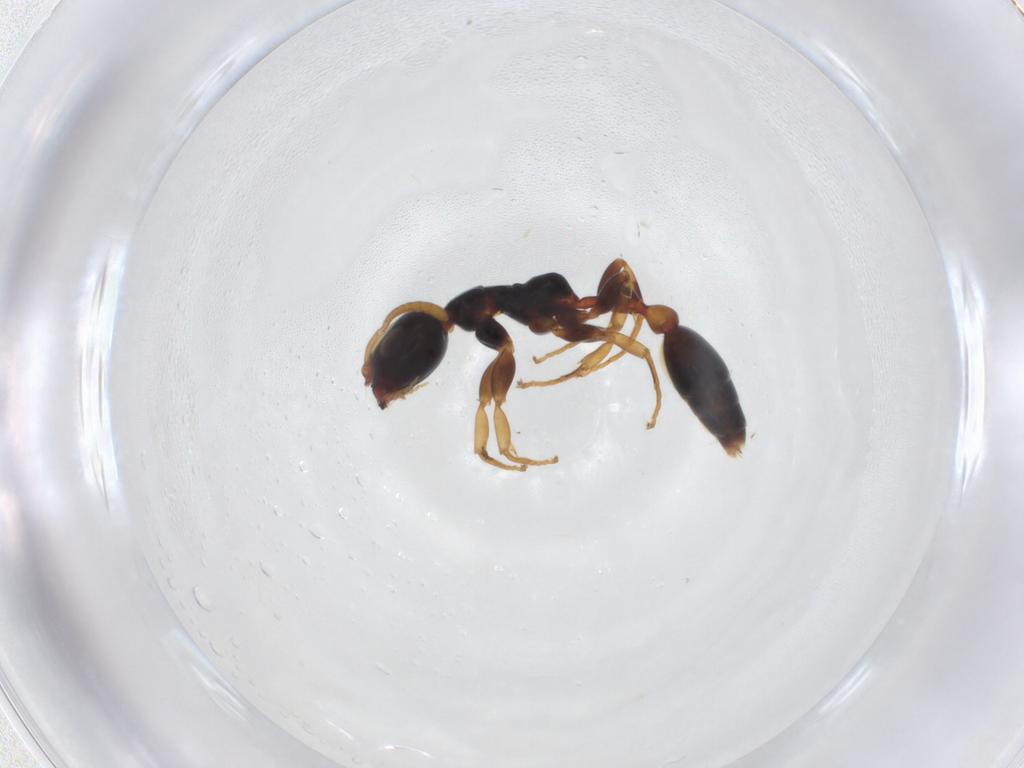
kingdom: Animalia
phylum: Arthropoda
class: Insecta
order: Hymenoptera
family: Formicidae
